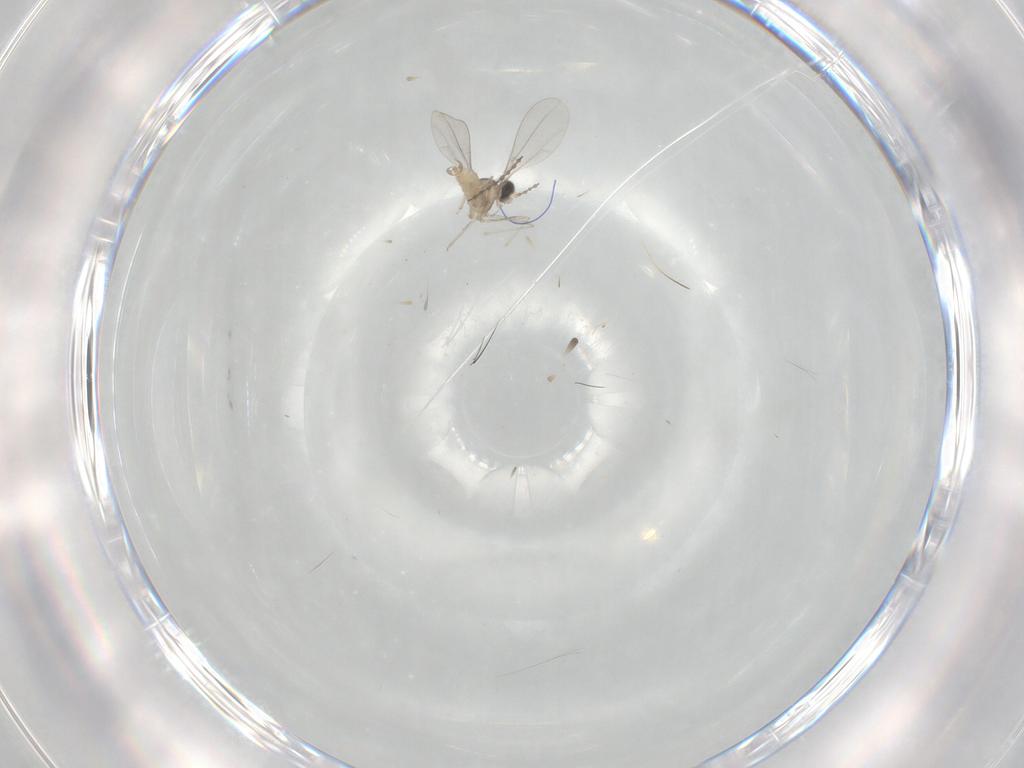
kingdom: Animalia
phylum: Arthropoda
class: Insecta
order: Diptera
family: Cecidomyiidae
